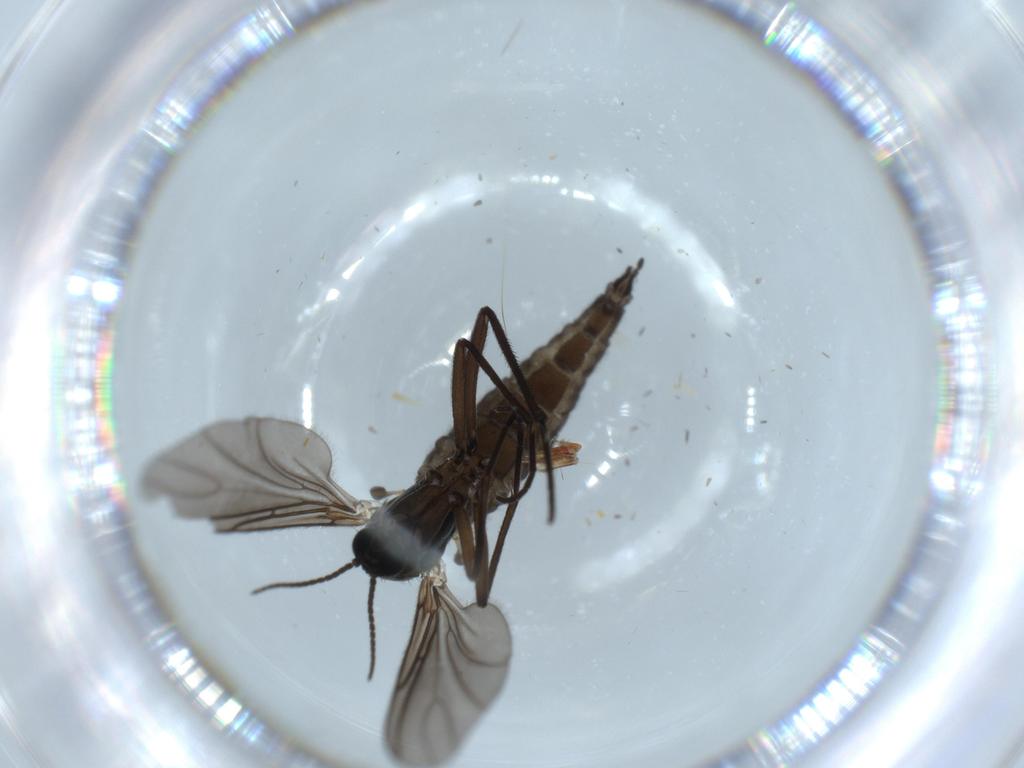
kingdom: Animalia
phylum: Arthropoda
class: Insecta
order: Diptera
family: Sciaridae
